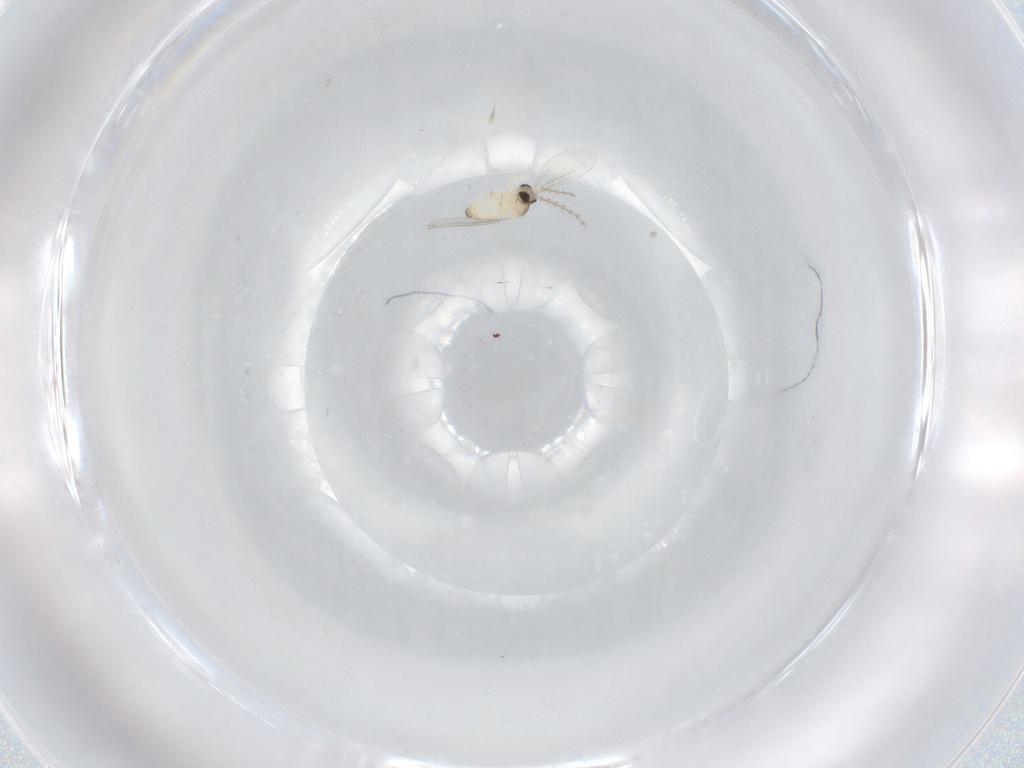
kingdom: Animalia
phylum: Arthropoda
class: Insecta
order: Diptera
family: Cecidomyiidae
